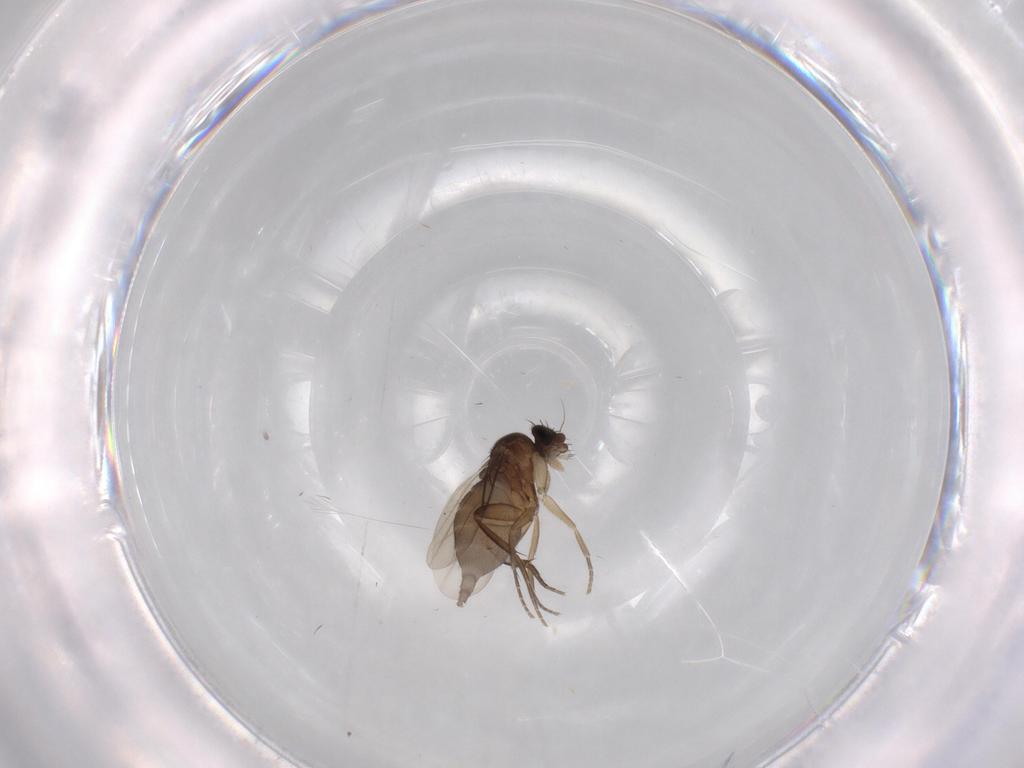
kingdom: Animalia
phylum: Arthropoda
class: Insecta
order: Diptera
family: Phoridae
